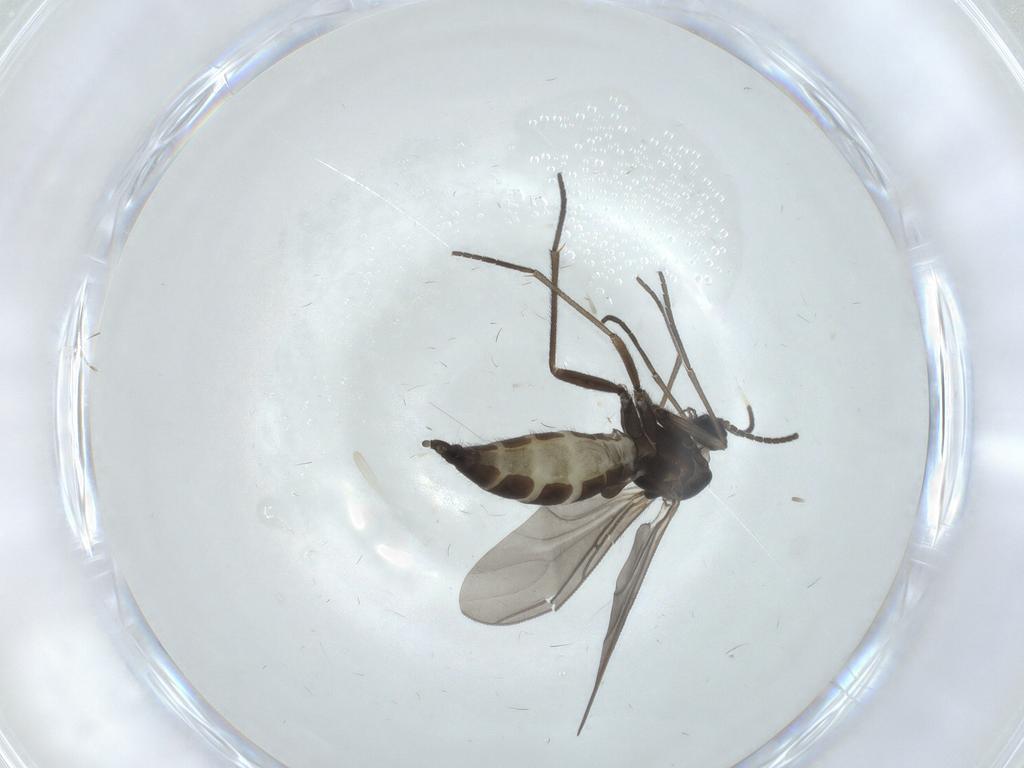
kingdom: Animalia
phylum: Arthropoda
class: Insecta
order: Diptera
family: Sciaridae
